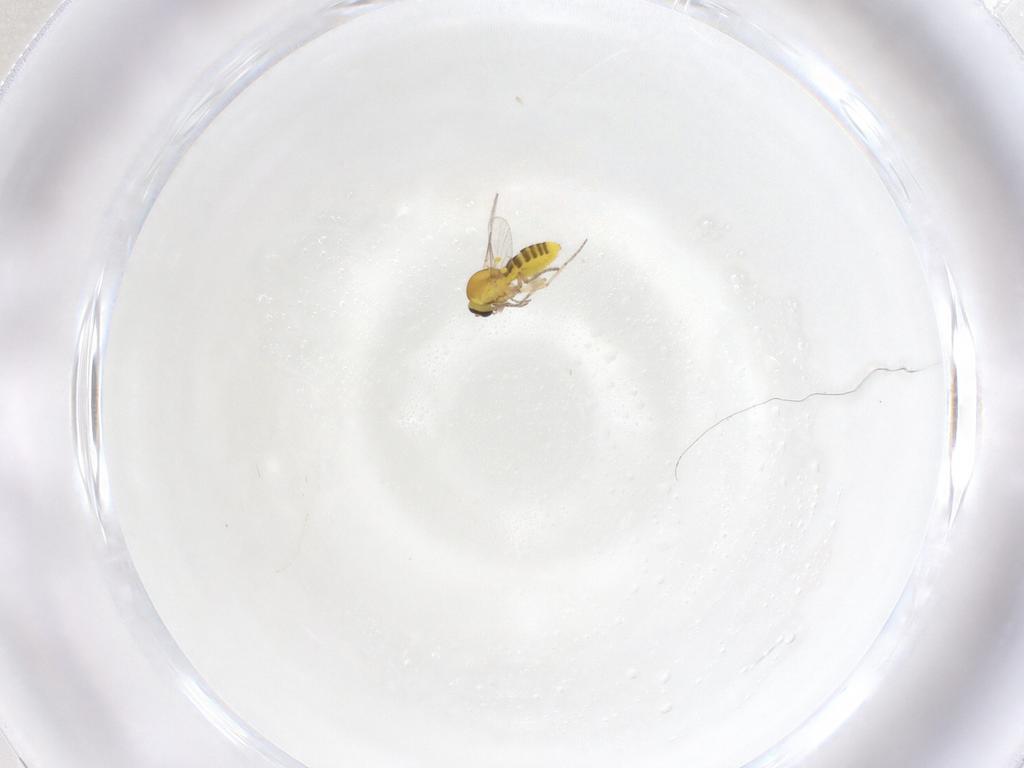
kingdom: Animalia
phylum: Arthropoda
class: Insecta
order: Diptera
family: Ceratopogonidae
